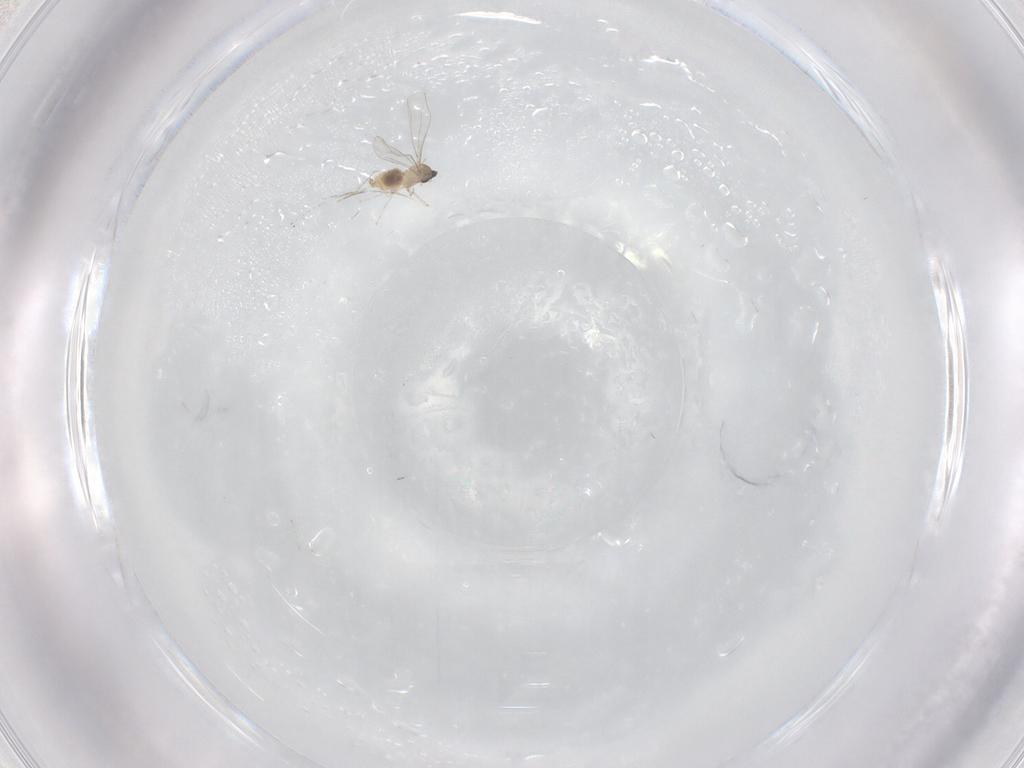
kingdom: Animalia
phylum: Arthropoda
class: Insecta
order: Diptera
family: Cecidomyiidae
